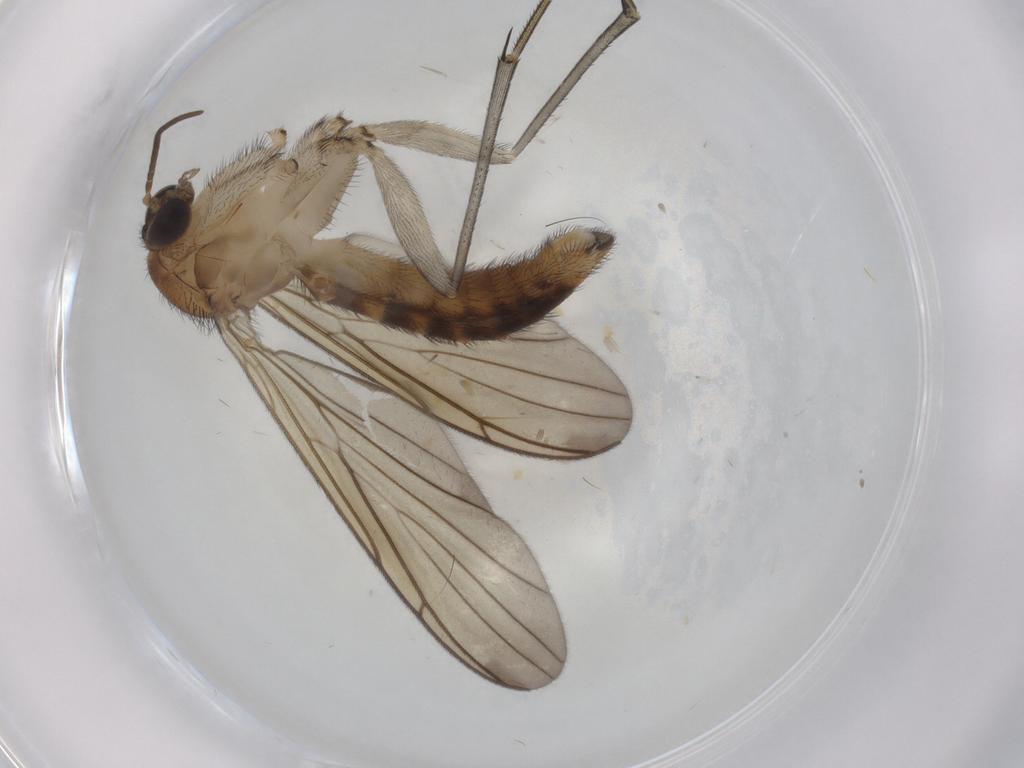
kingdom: Animalia
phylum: Arthropoda
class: Insecta
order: Diptera
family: Keroplatidae
